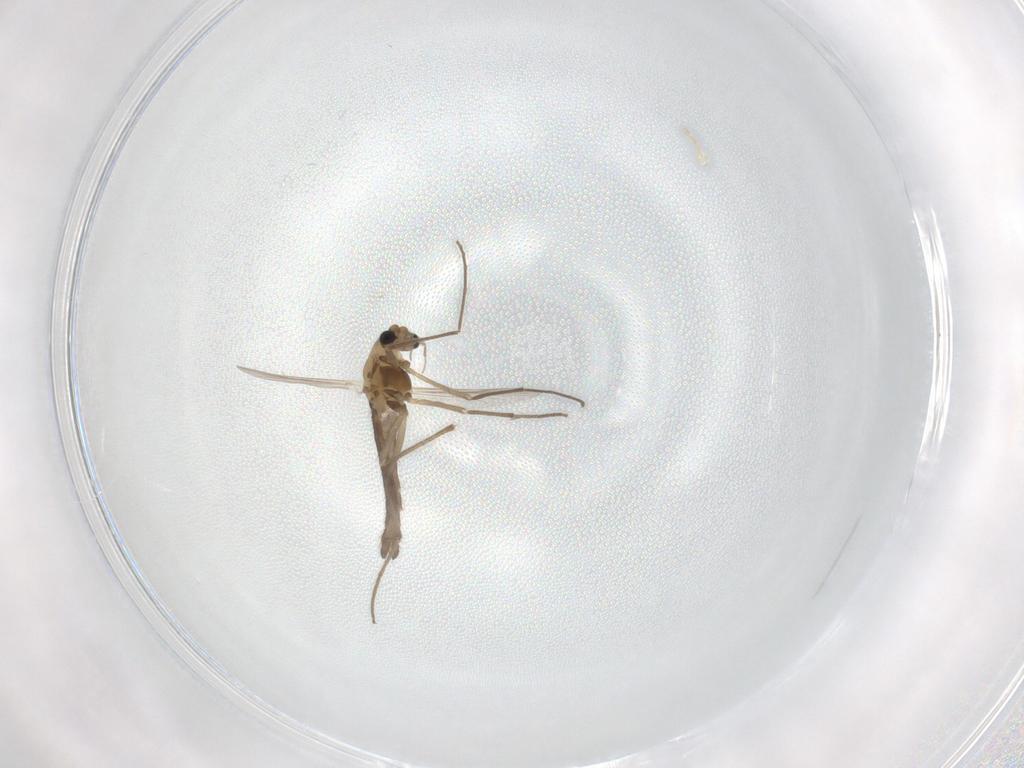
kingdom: Animalia
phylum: Arthropoda
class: Insecta
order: Diptera
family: Chironomidae
